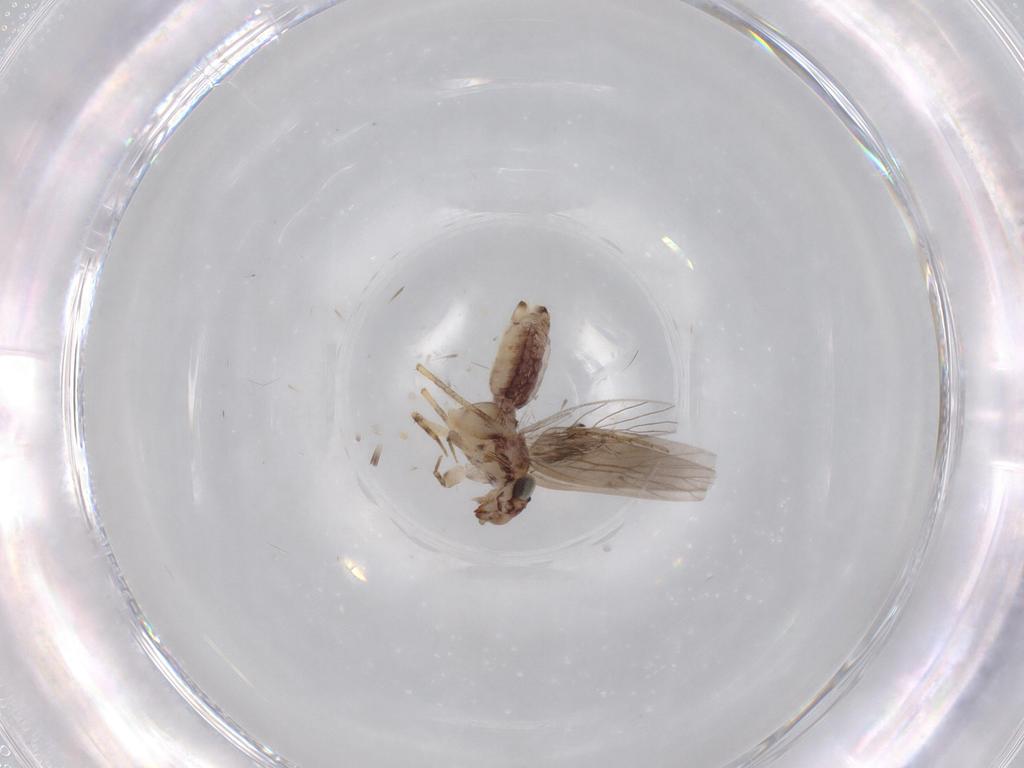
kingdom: Animalia
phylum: Arthropoda
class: Insecta
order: Psocodea
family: Lepidopsocidae
